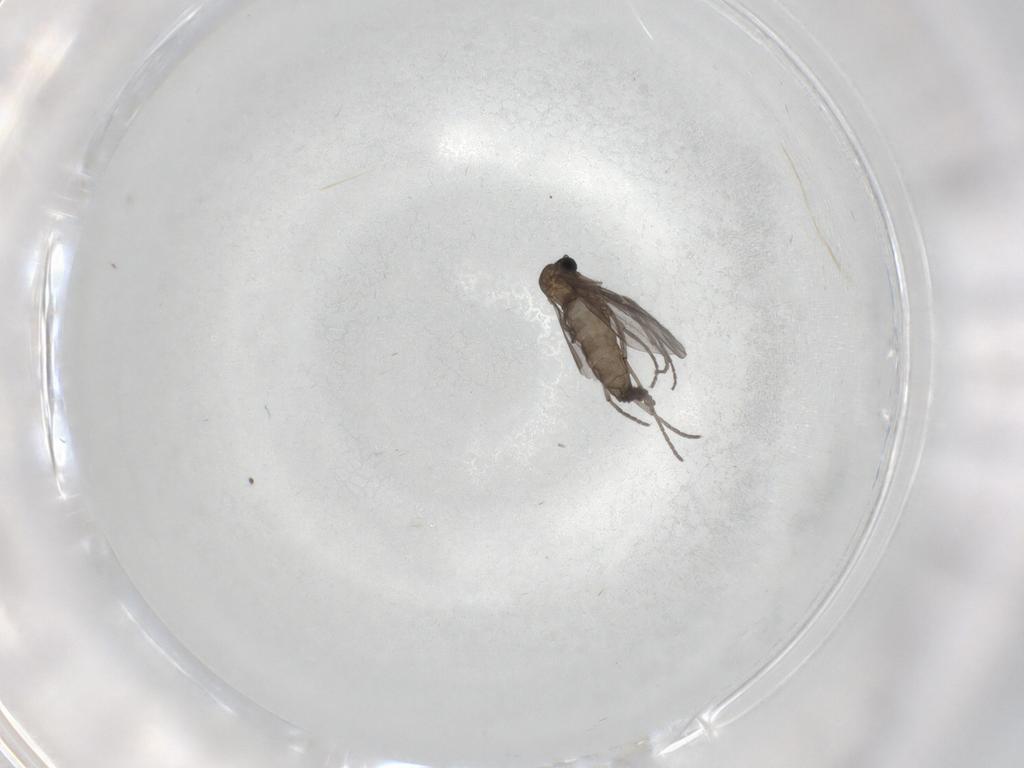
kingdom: Animalia
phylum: Arthropoda
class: Insecta
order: Diptera
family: Sciaridae
